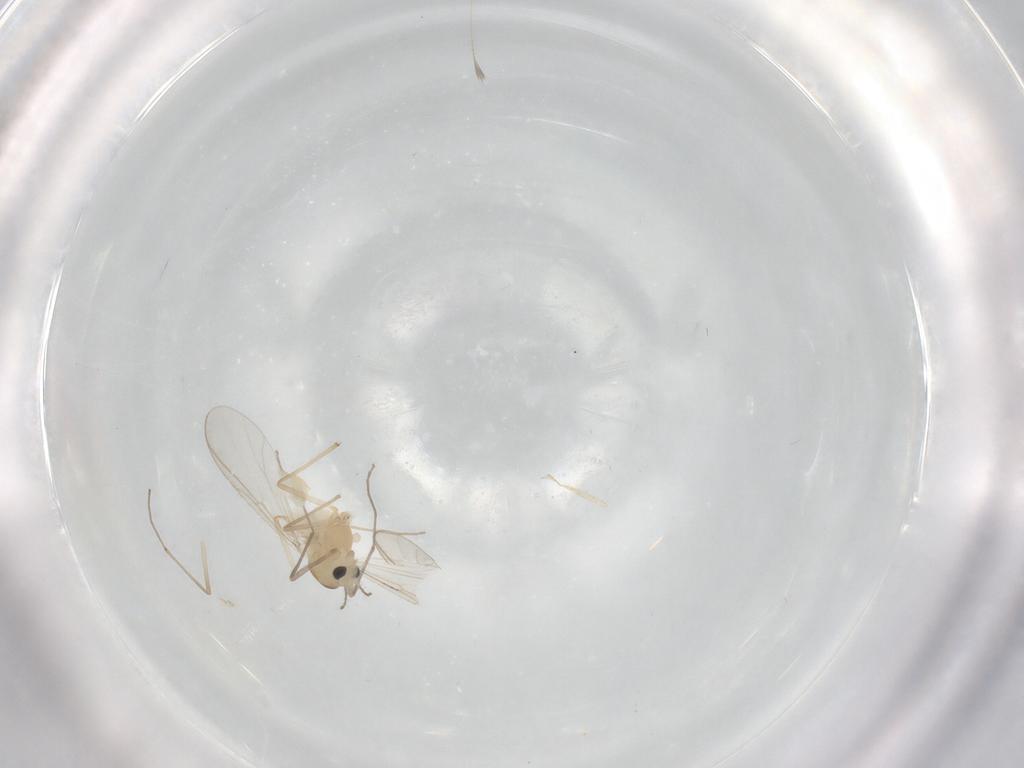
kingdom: Animalia
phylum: Arthropoda
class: Insecta
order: Diptera
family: Chironomidae
